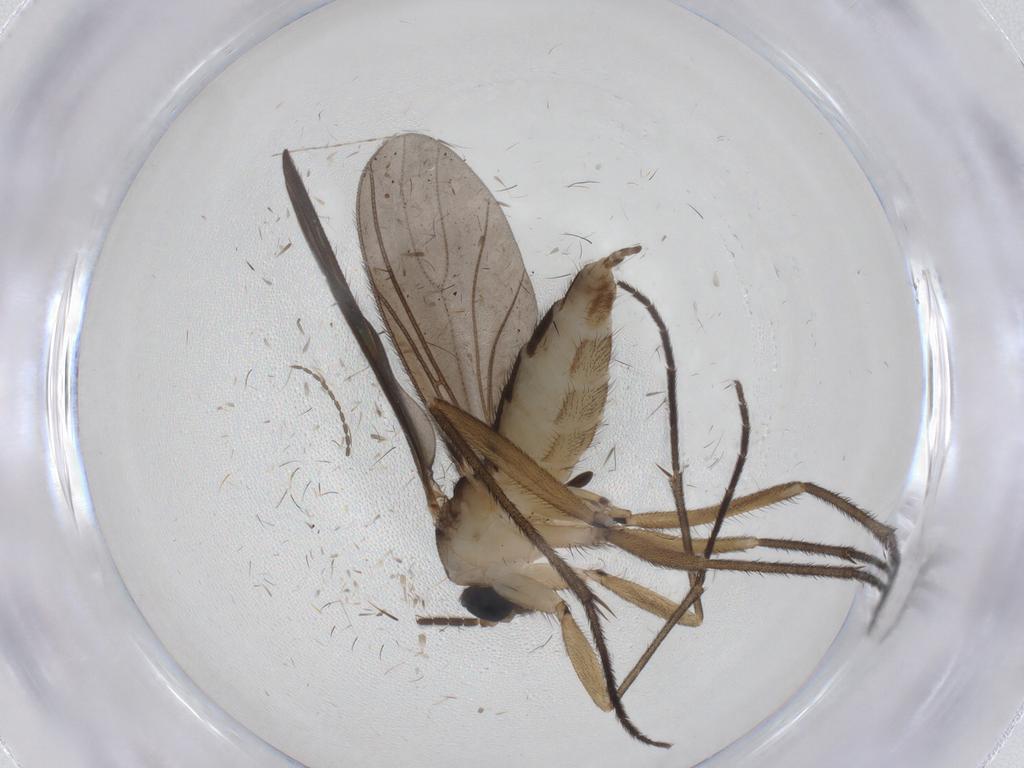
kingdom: Animalia
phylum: Arthropoda
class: Insecta
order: Diptera
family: Sciaridae
